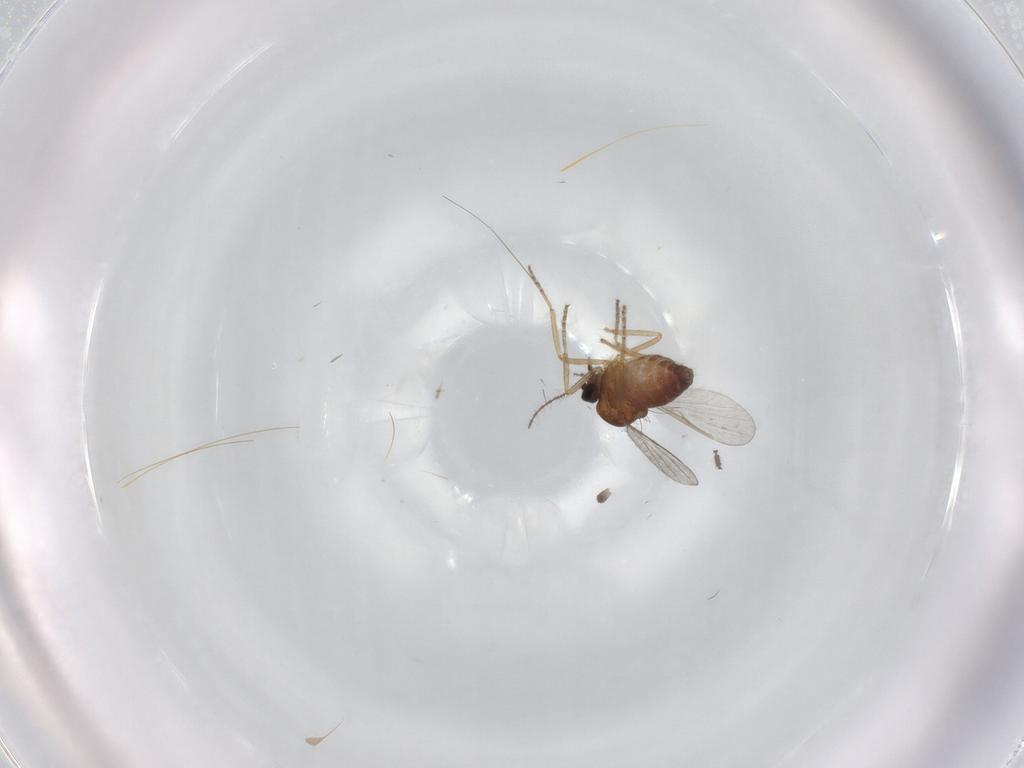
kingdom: Animalia
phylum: Arthropoda
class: Insecta
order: Diptera
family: Ceratopogonidae
